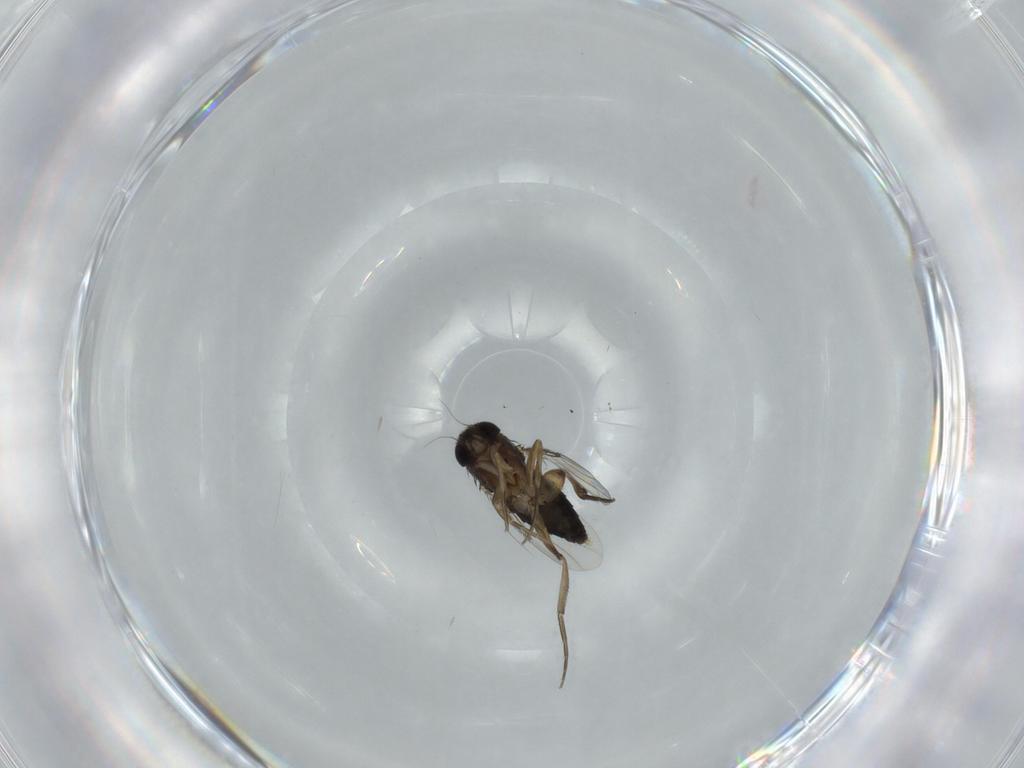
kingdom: Animalia
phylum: Arthropoda
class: Insecta
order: Diptera
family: Phoridae
